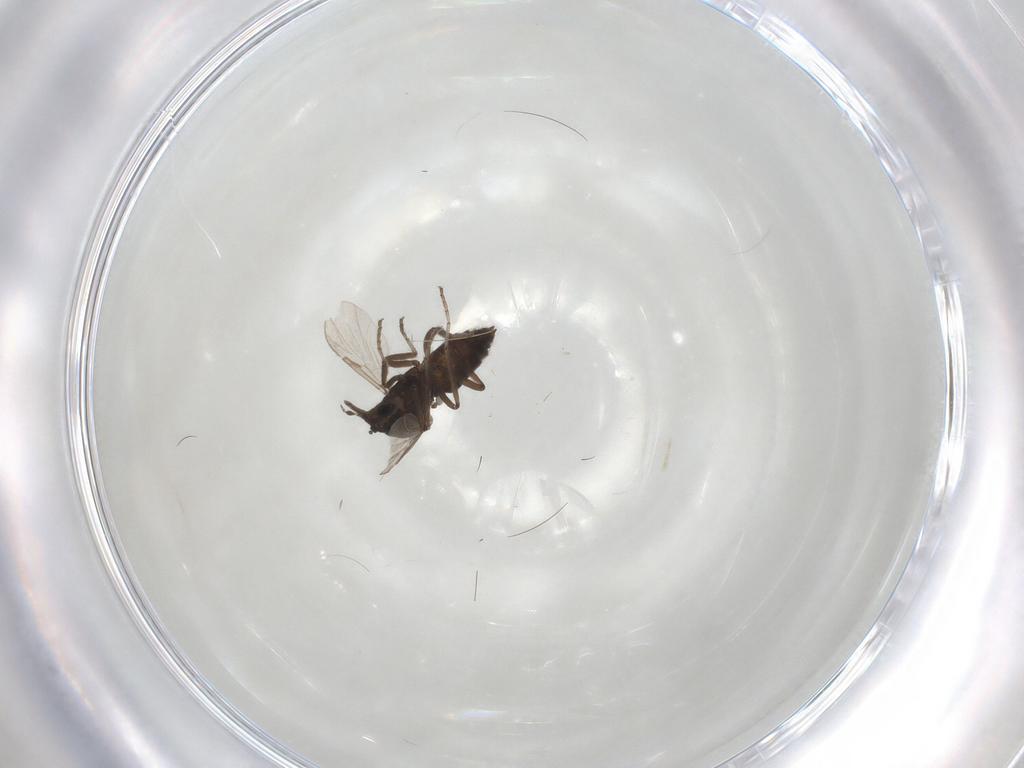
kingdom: Animalia
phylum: Arthropoda
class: Insecta
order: Diptera
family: Ceratopogonidae
